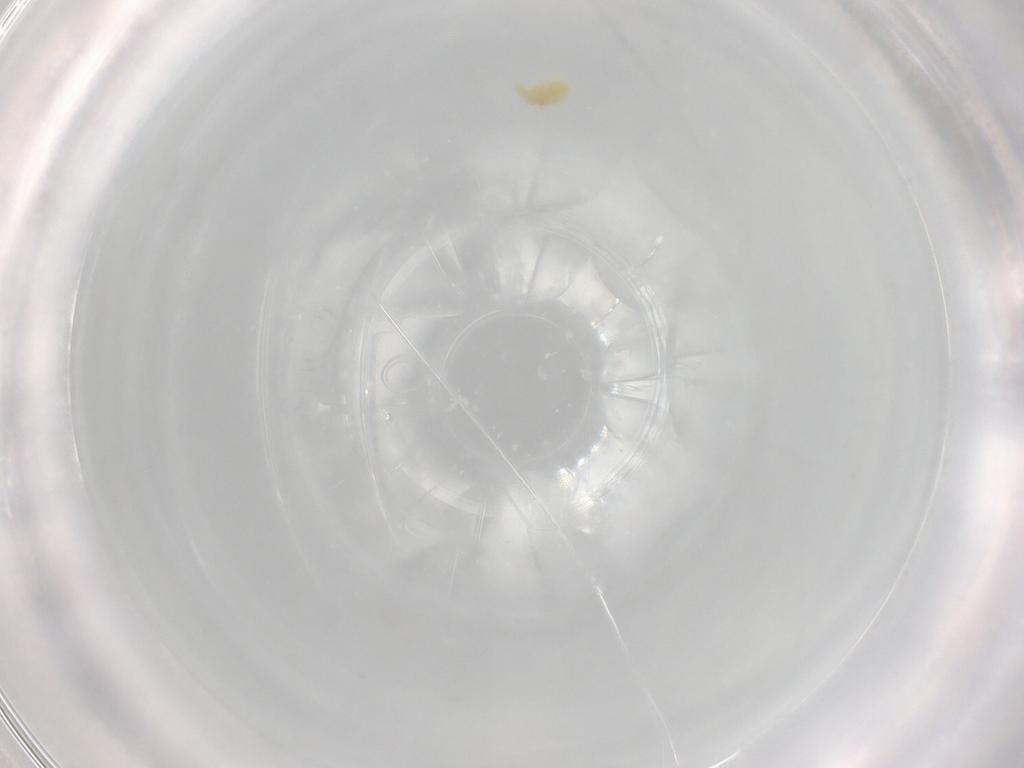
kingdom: Animalia
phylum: Arthropoda
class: Arachnida
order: Trombidiformes
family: Eupodidae
